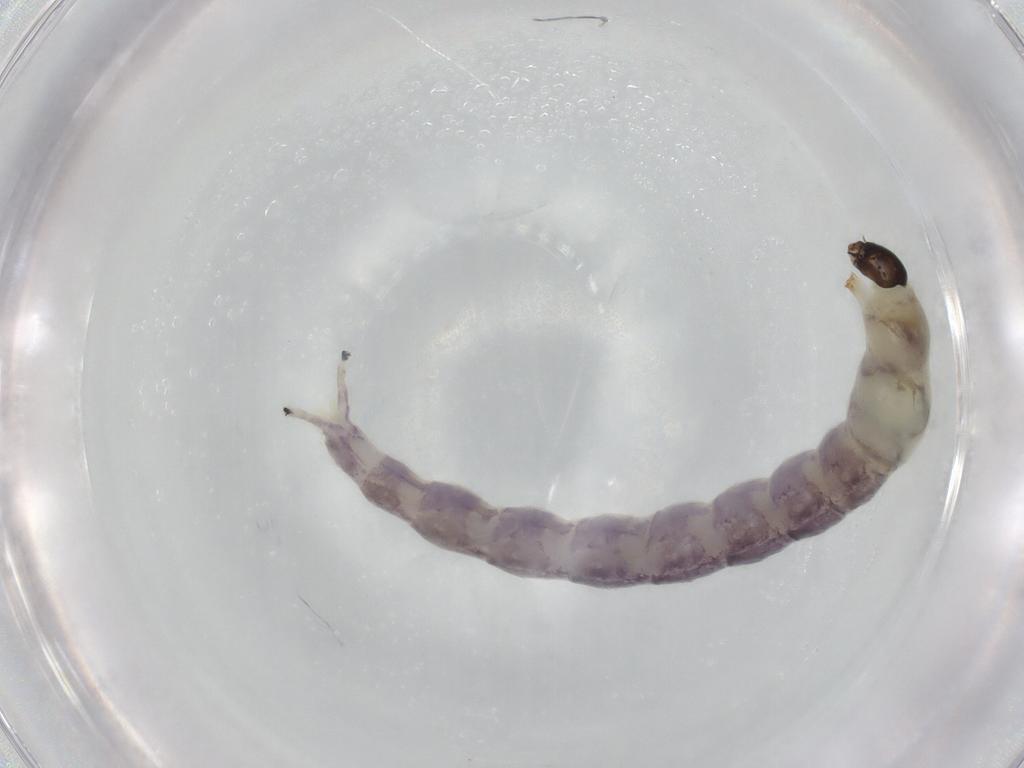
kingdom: Animalia
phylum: Arthropoda
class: Insecta
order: Diptera
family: Chironomidae
